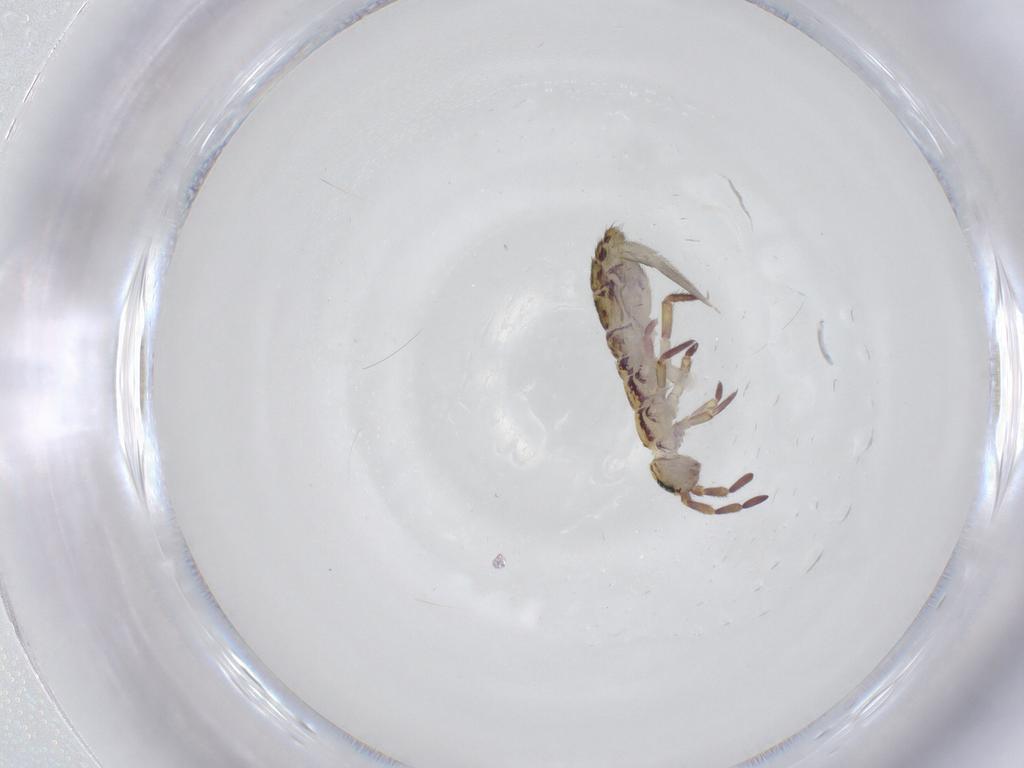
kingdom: Animalia
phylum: Arthropoda
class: Collembola
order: Entomobryomorpha
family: Isotomidae
